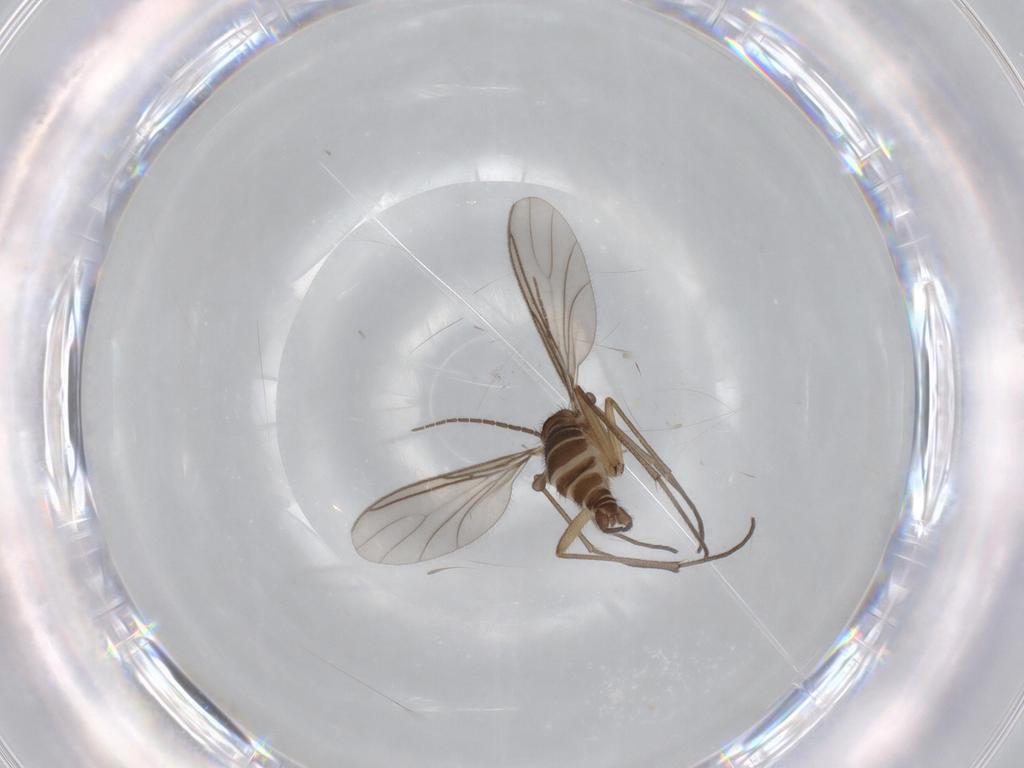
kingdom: Animalia
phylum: Arthropoda
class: Insecta
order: Diptera
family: Sciaridae
